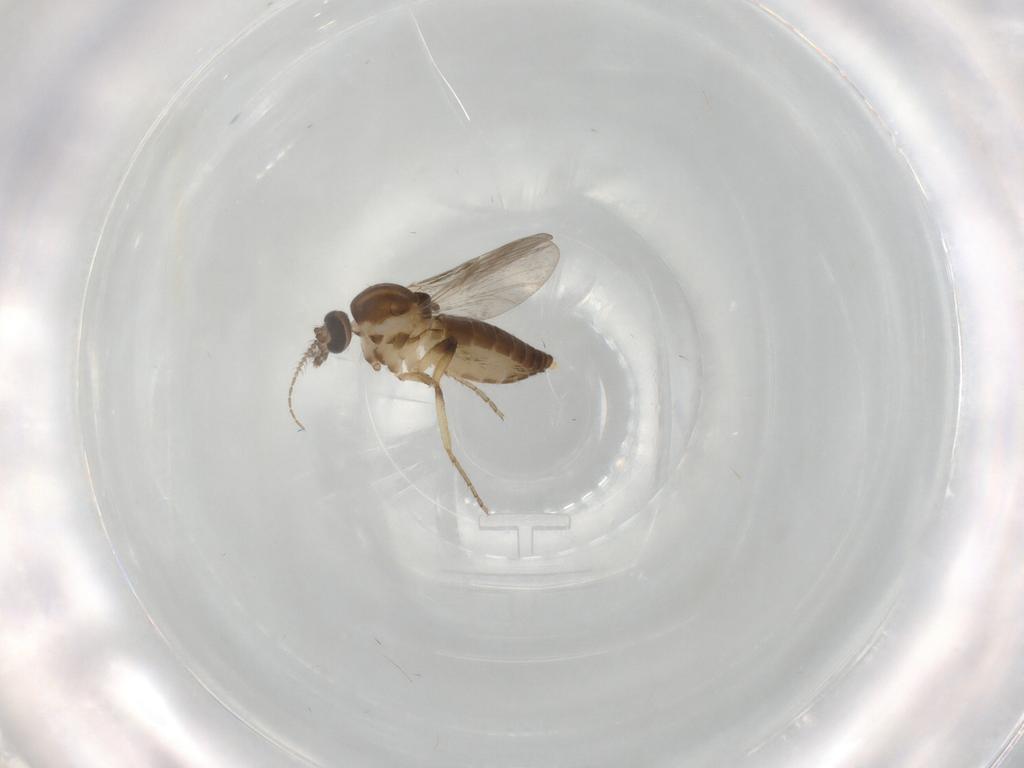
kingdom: Animalia
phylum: Arthropoda
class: Insecta
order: Diptera
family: Ceratopogonidae
